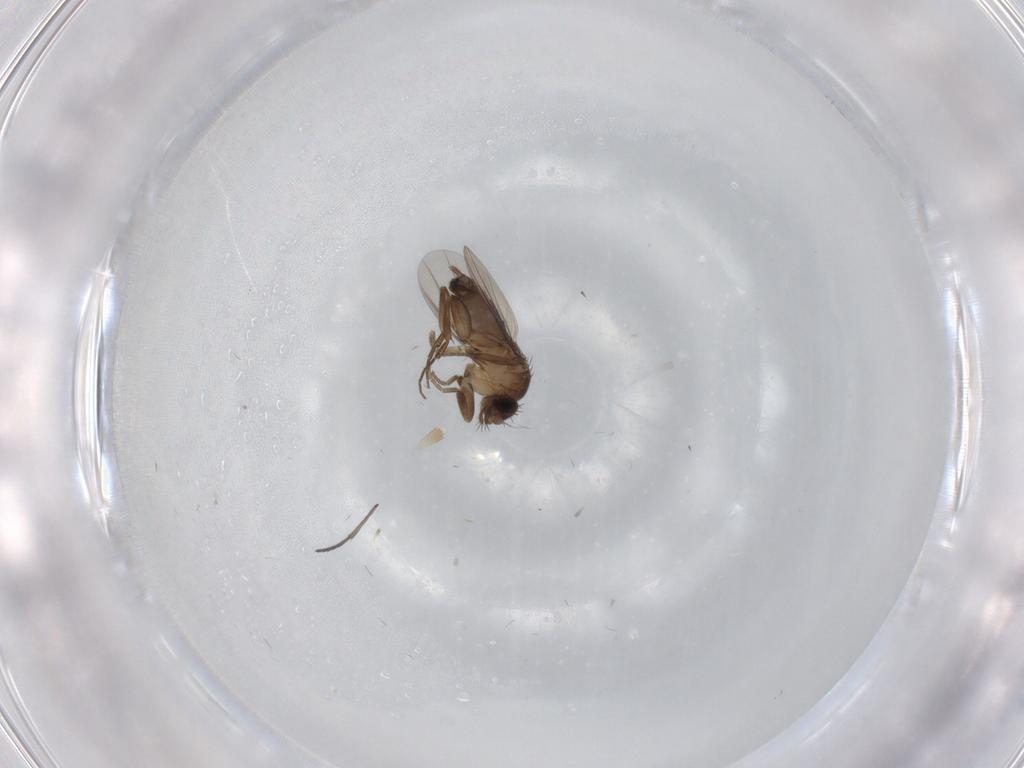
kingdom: Animalia
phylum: Arthropoda
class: Insecta
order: Diptera
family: Phoridae
